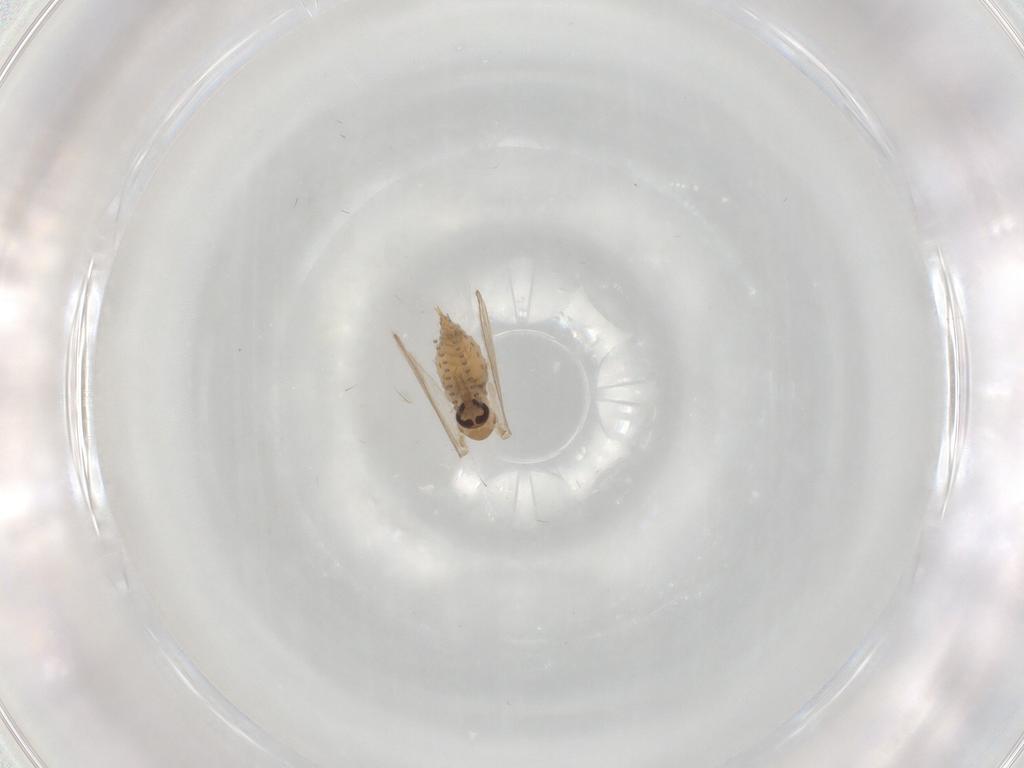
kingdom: Animalia
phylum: Arthropoda
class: Insecta
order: Diptera
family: Psychodidae
